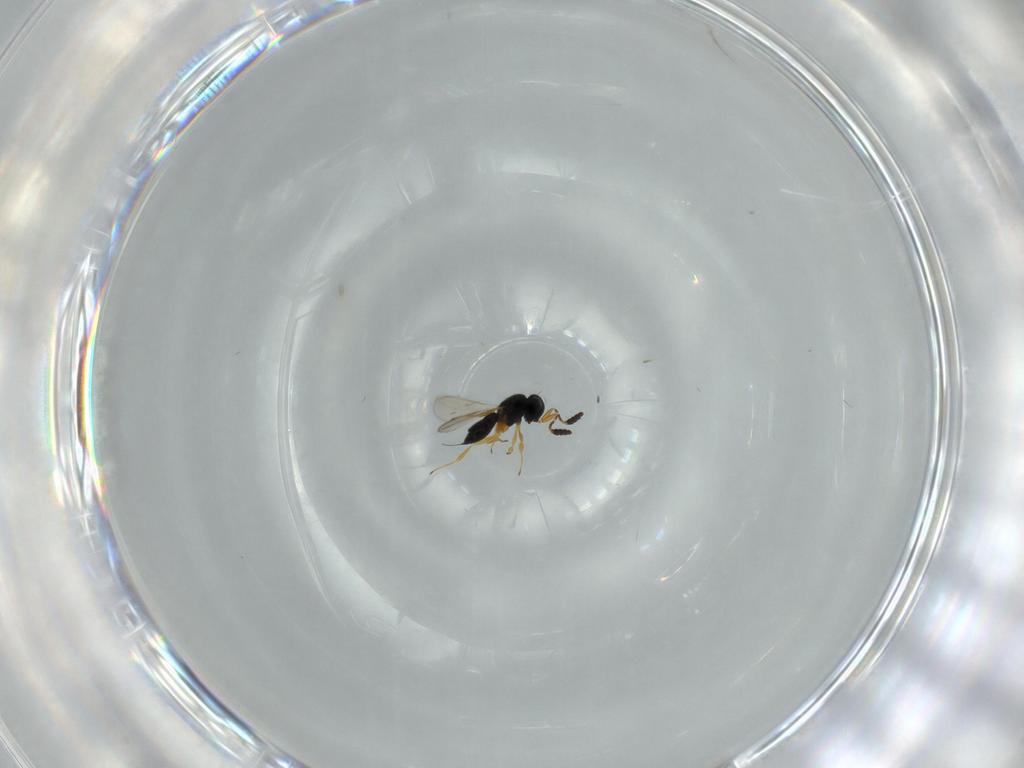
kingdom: Animalia
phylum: Arthropoda
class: Insecta
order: Hymenoptera
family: Scelionidae
